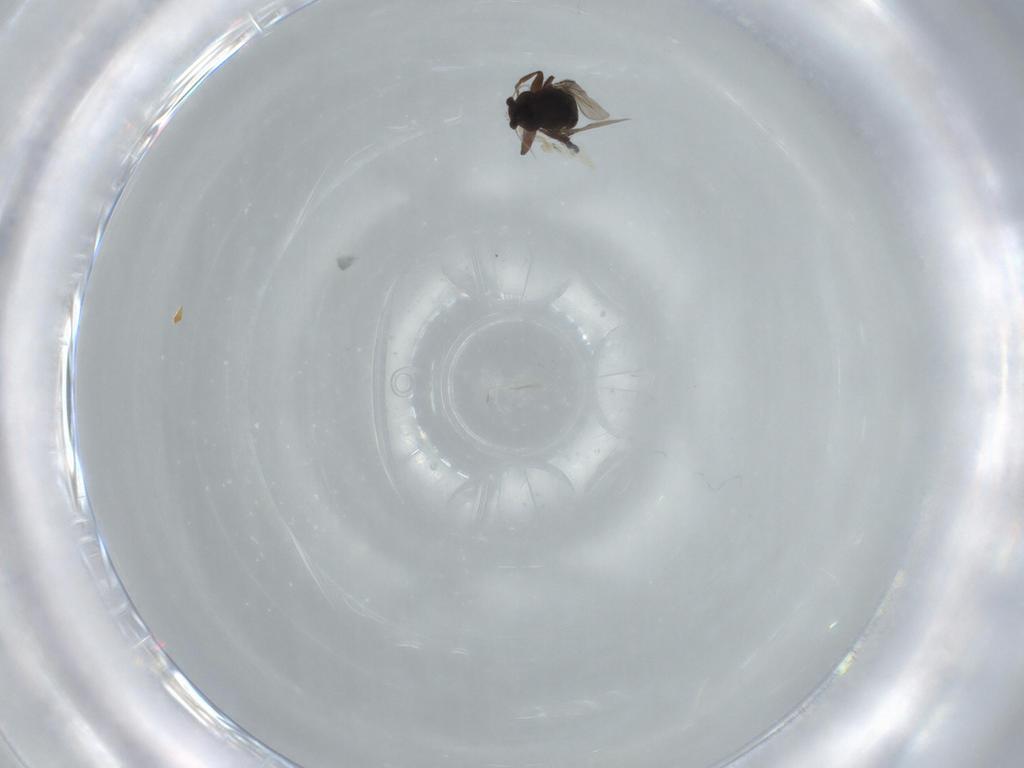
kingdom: Animalia
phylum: Arthropoda
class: Insecta
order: Diptera
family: Sphaeroceridae
